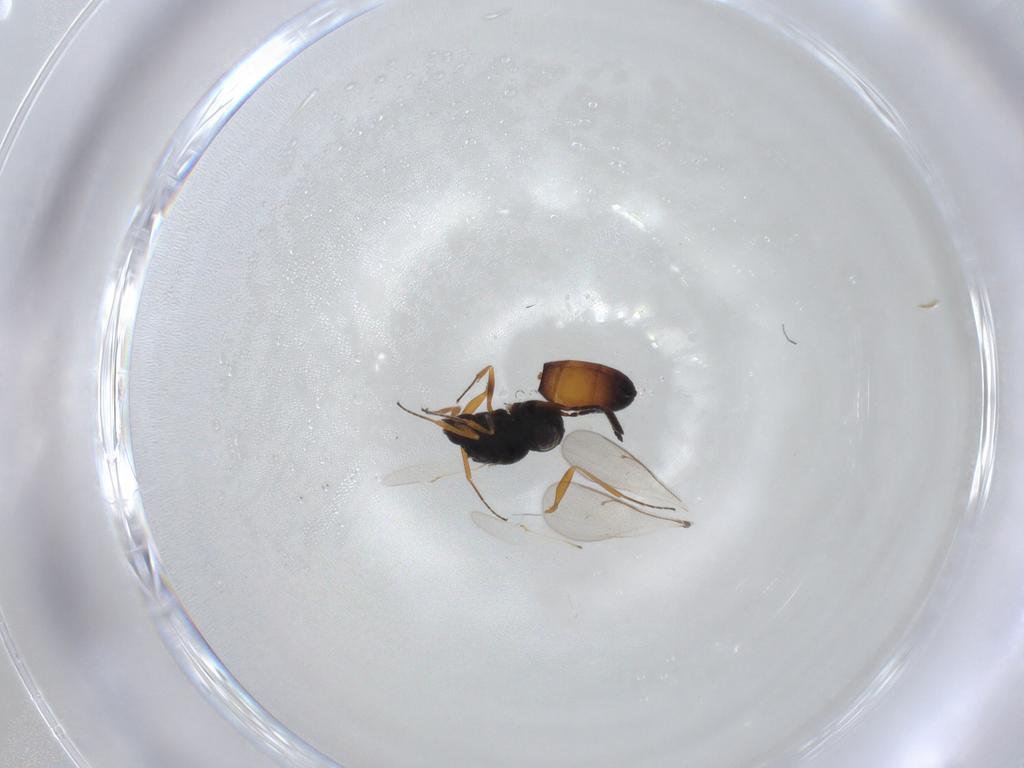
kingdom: Animalia
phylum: Arthropoda
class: Insecta
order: Hymenoptera
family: Scelionidae
